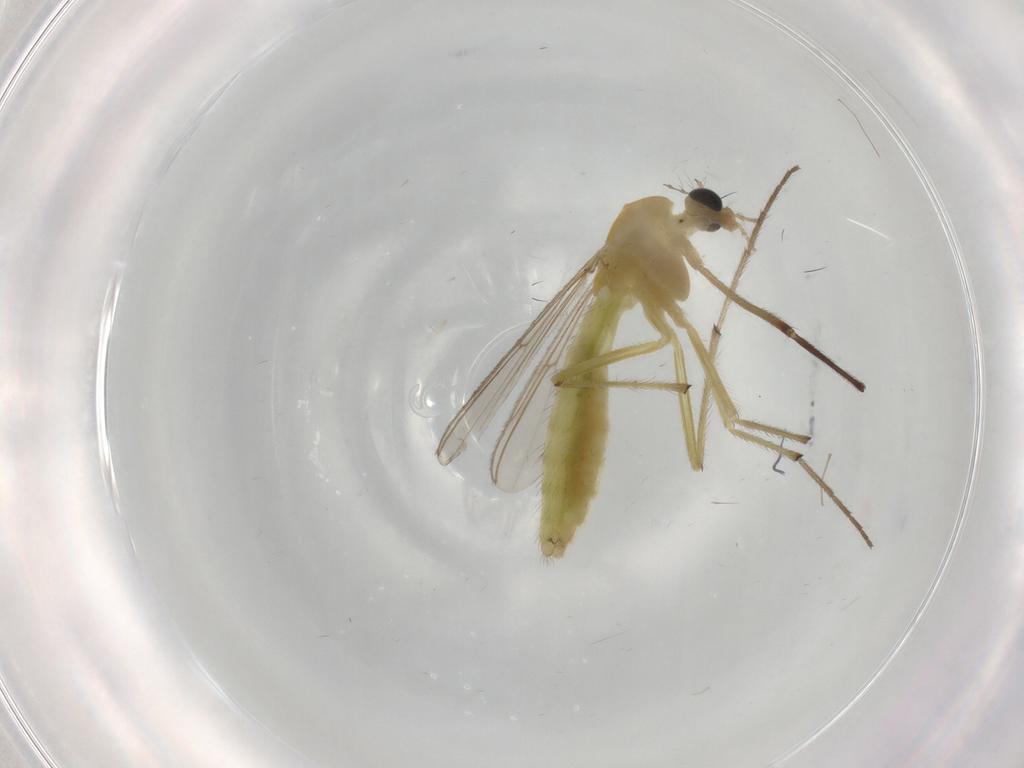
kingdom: Animalia
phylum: Arthropoda
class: Insecta
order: Diptera
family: Chironomidae
